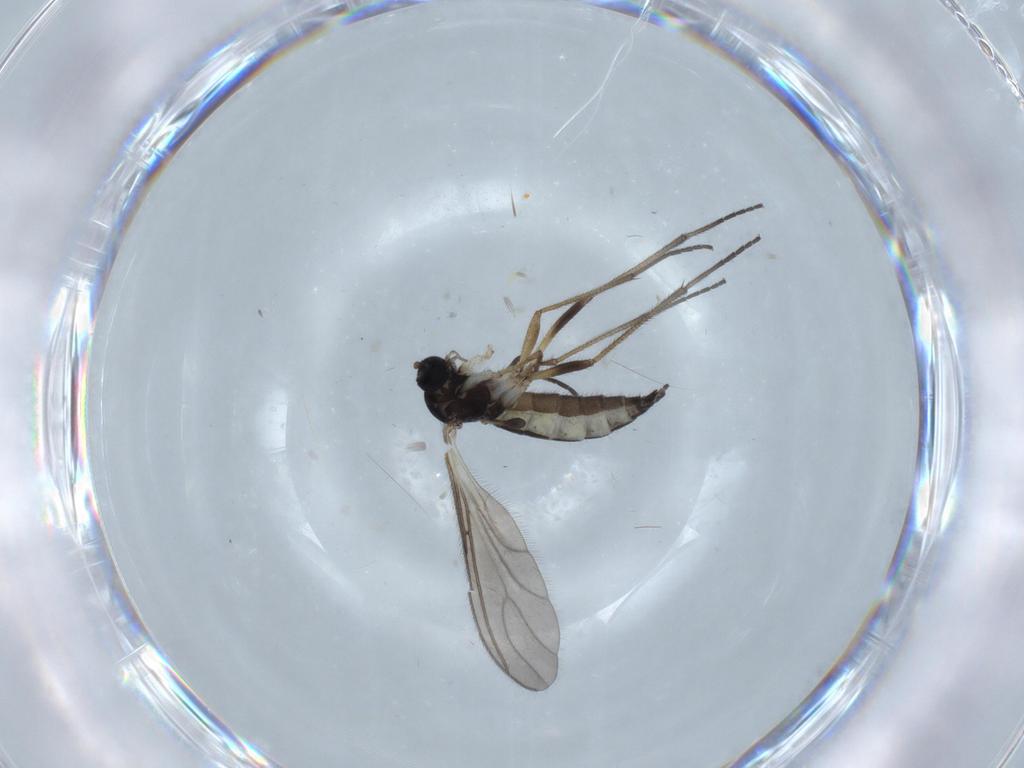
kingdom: Animalia
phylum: Arthropoda
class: Insecta
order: Diptera
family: Sciaridae
